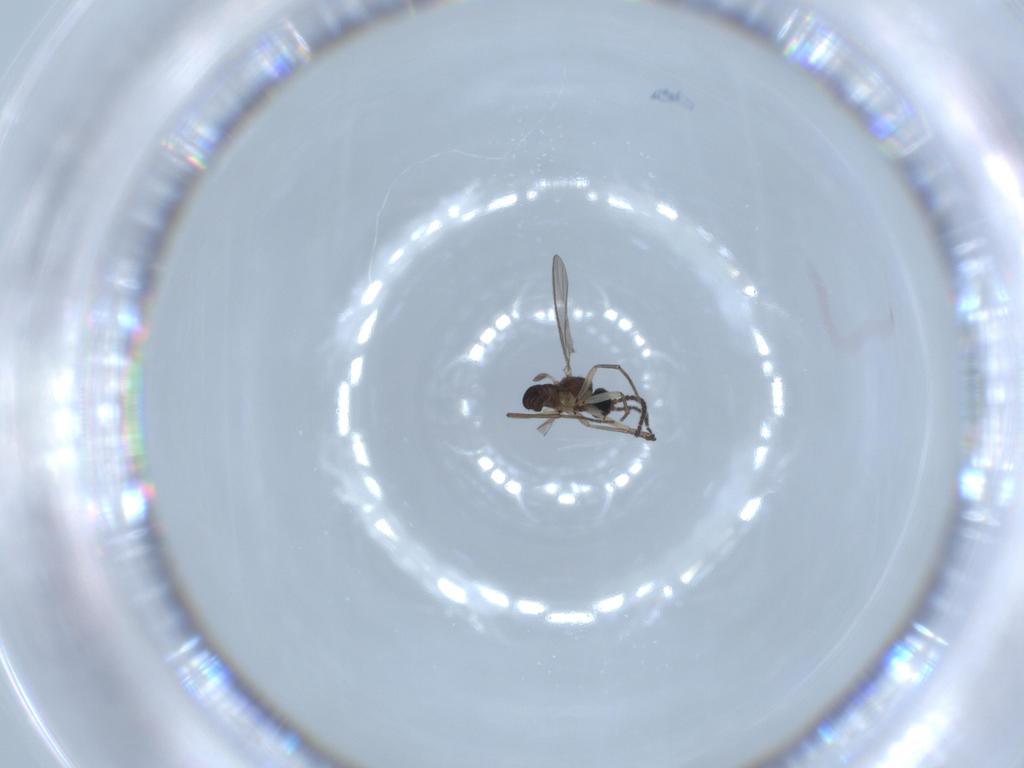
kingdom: Animalia
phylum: Arthropoda
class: Insecta
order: Diptera
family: Sciaridae
